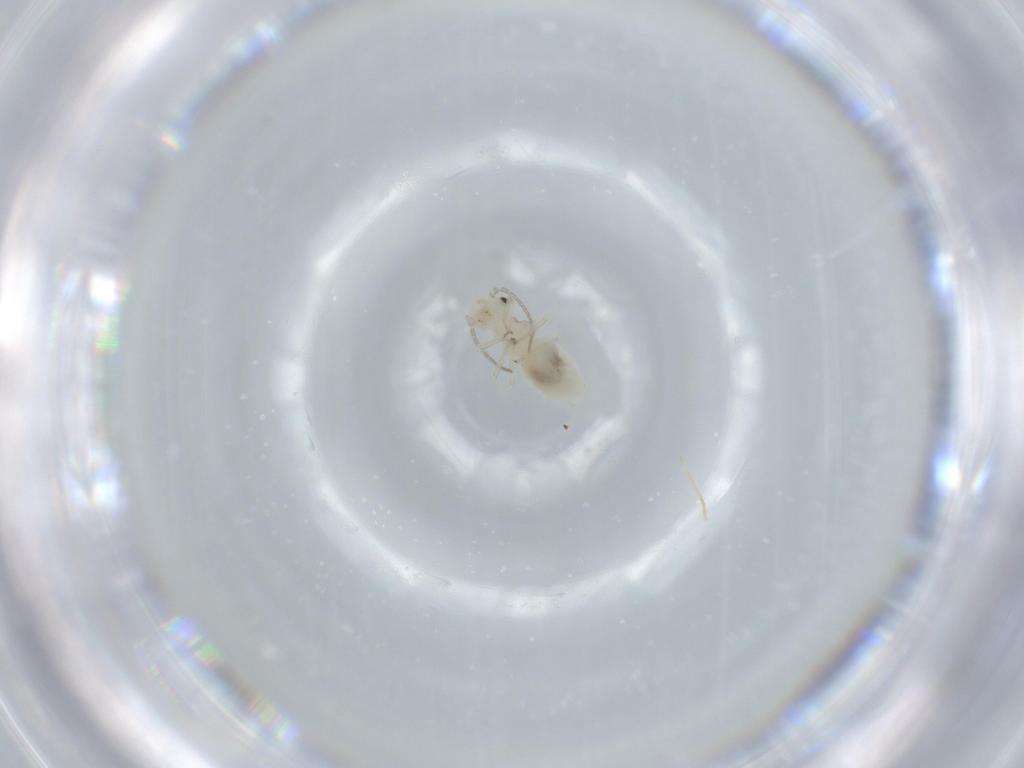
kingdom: Animalia
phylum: Arthropoda
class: Insecta
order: Psocodea
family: Caeciliusidae
